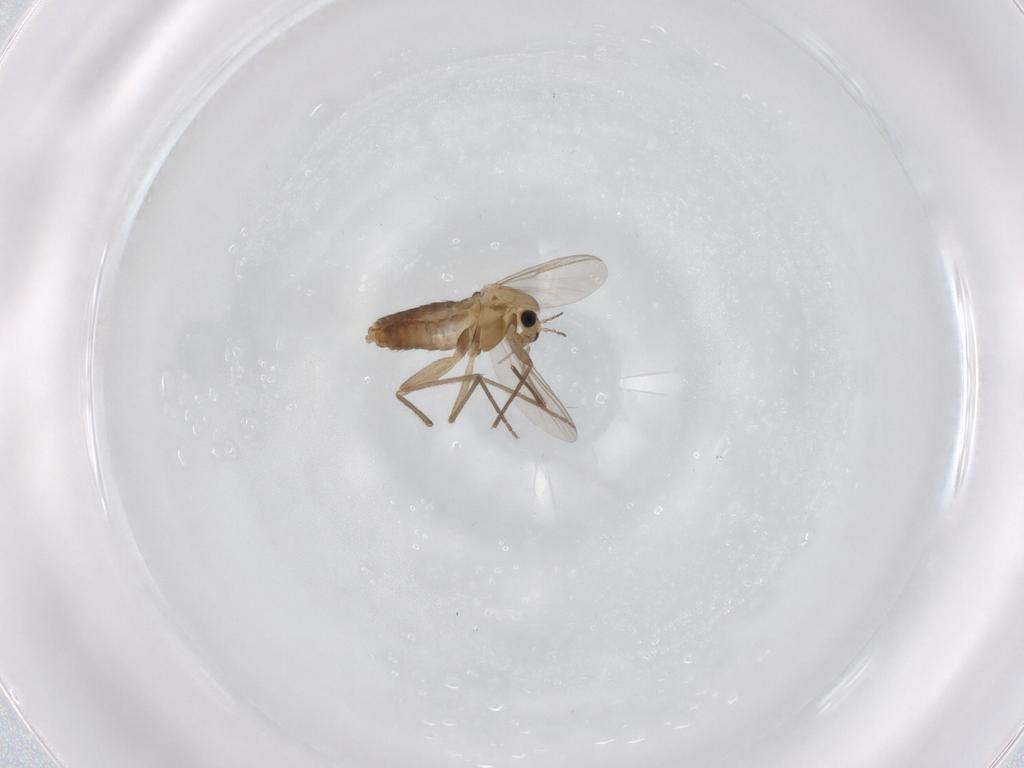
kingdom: Animalia
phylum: Arthropoda
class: Insecta
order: Diptera
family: Chironomidae
